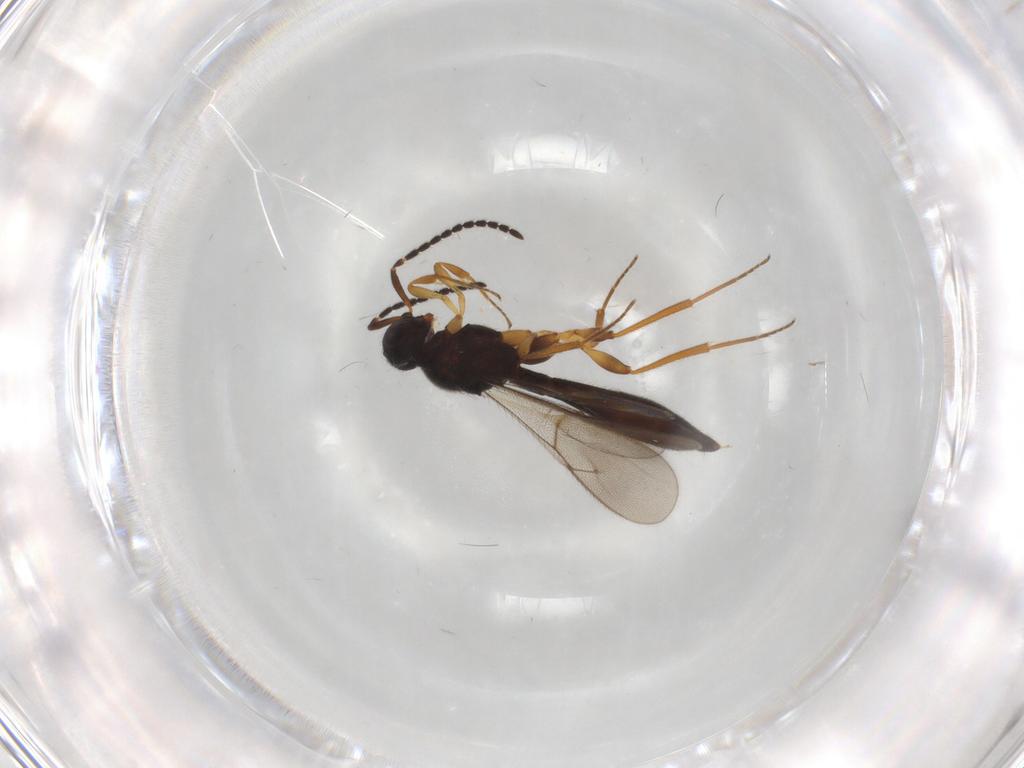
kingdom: Animalia
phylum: Arthropoda
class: Insecta
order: Hymenoptera
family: Scelionidae
